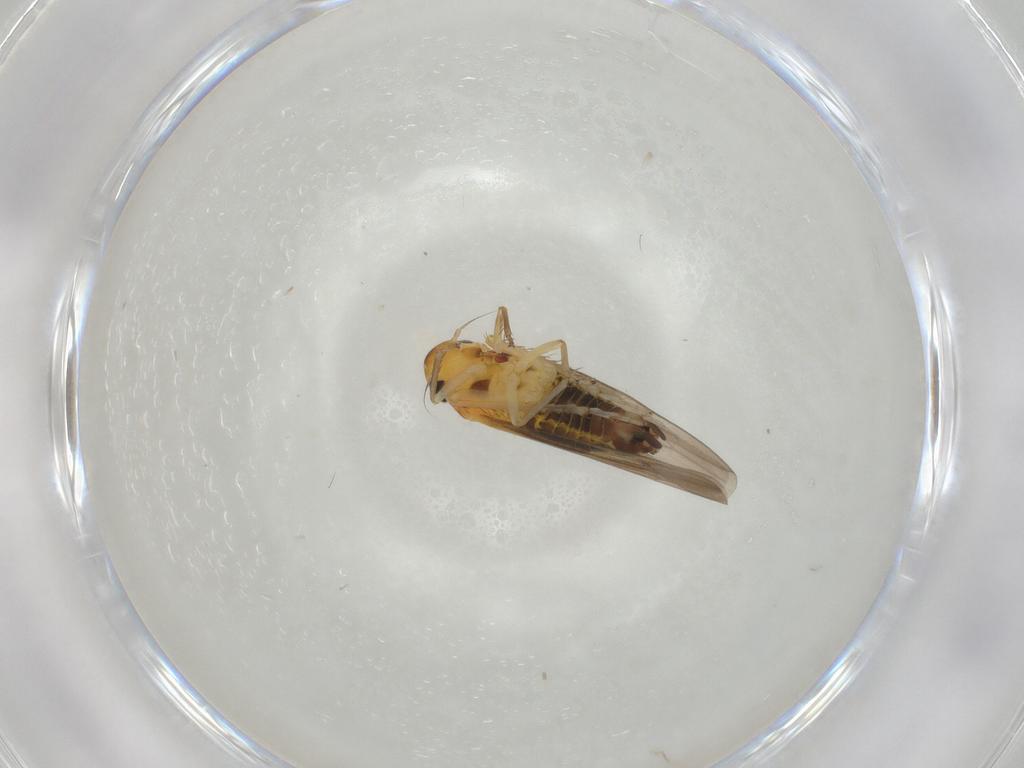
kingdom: Animalia
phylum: Arthropoda
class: Insecta
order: Hemiptera
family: Cicadellidae
